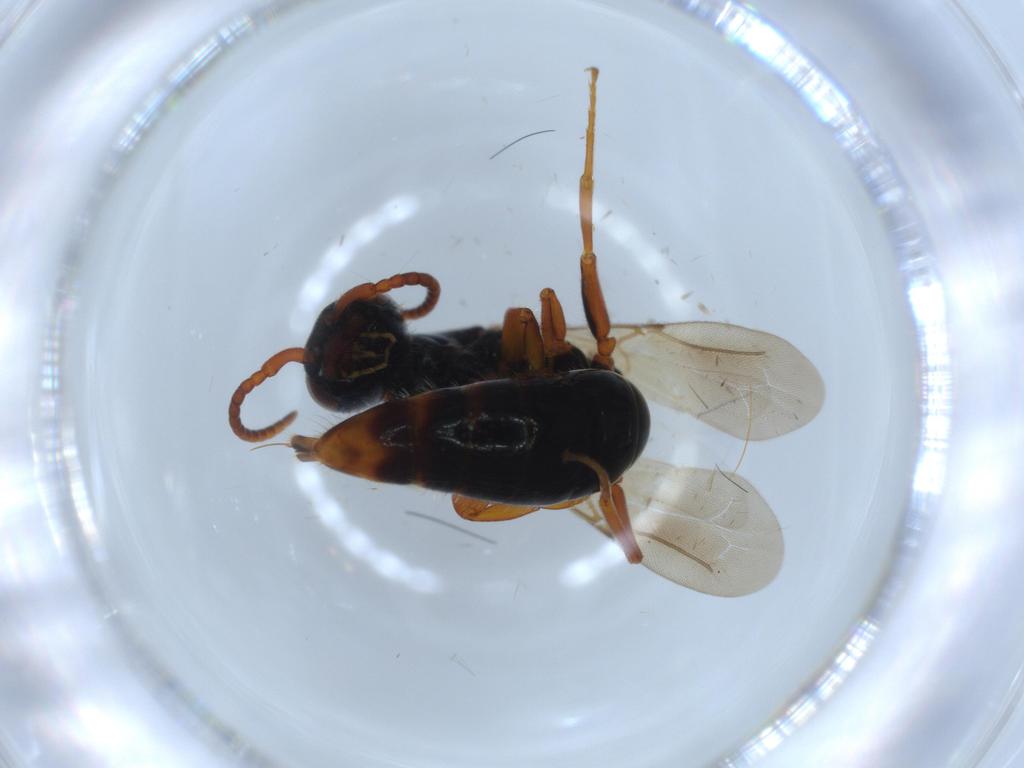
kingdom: Animalia
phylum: Arthropoda
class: Insecta
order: Hymenoptera
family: Bethylidae
